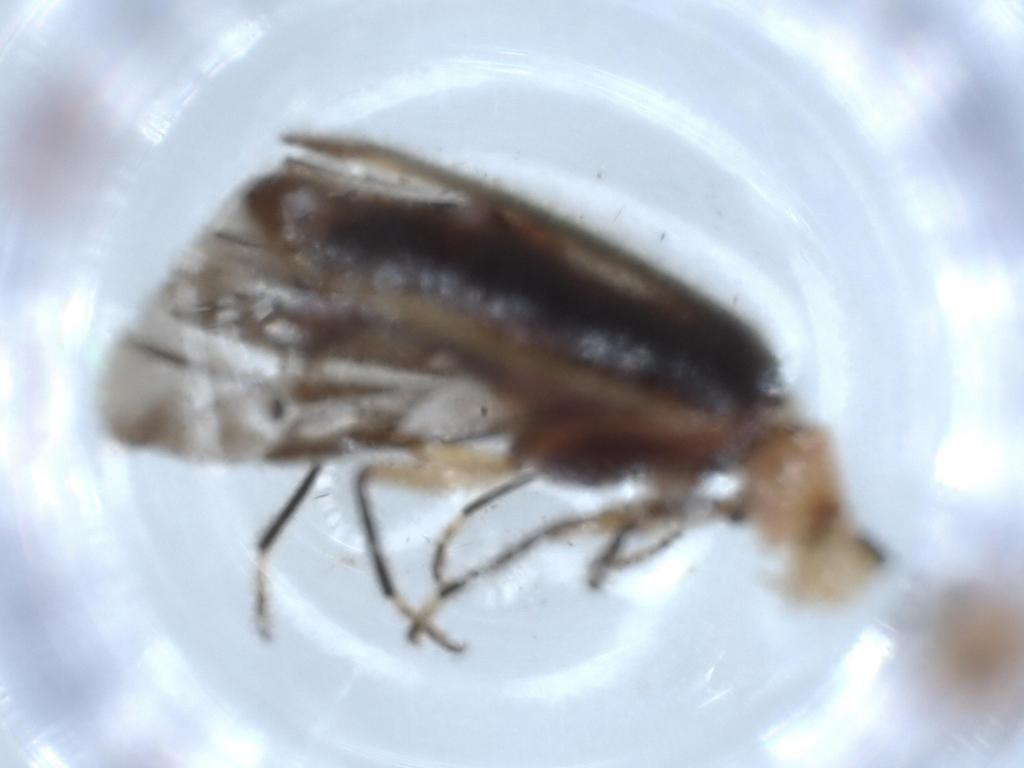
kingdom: Animalia
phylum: Arthropoda
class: Insecta
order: Coleoptera
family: Cleridae
